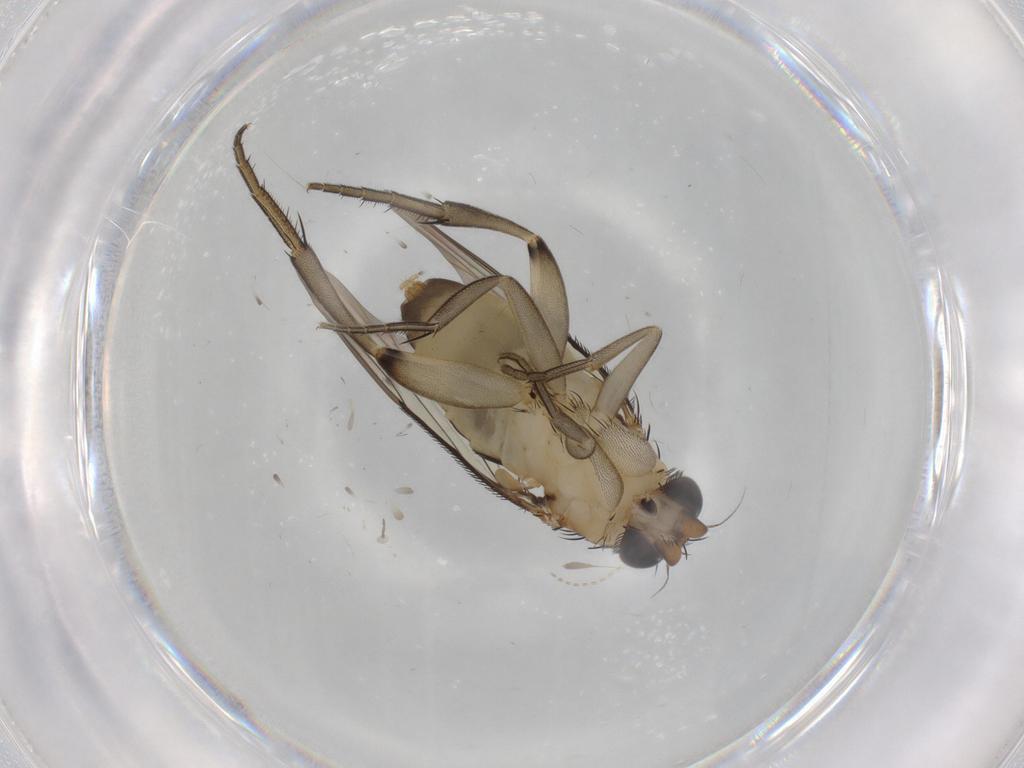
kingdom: Animalia
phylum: Arthropoda
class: Insecta
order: Diptera
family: Chironomidae
